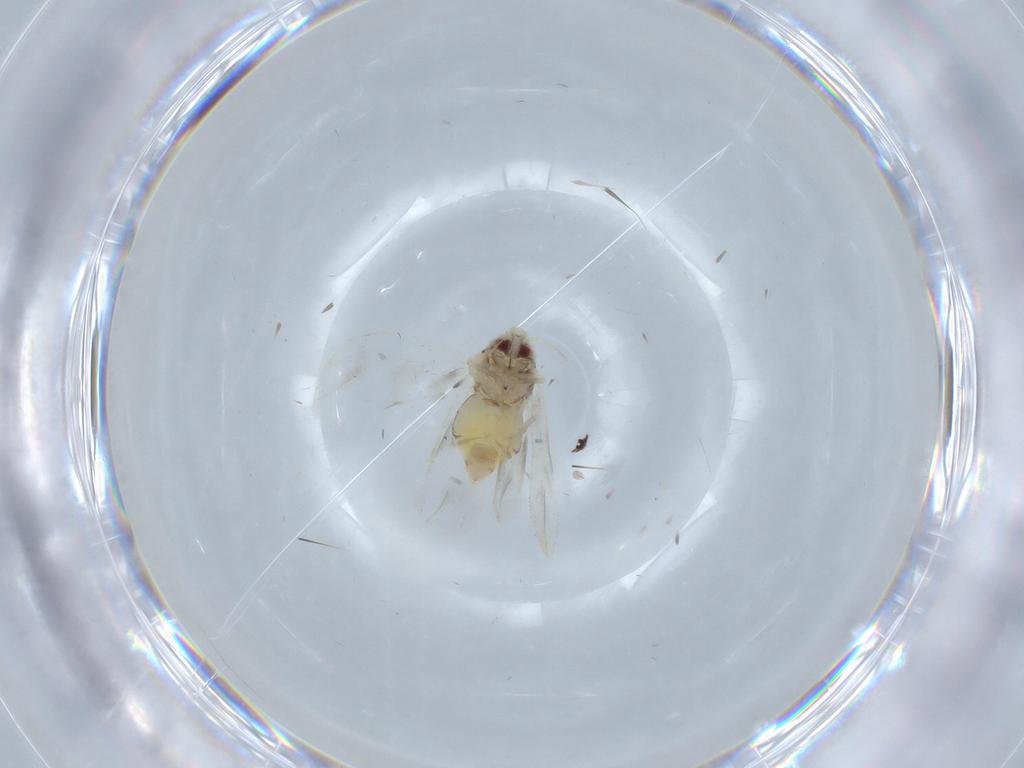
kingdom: Animalia
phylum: Arthropoda
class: Insecta
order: Hemiptera
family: Aleyrodidae
